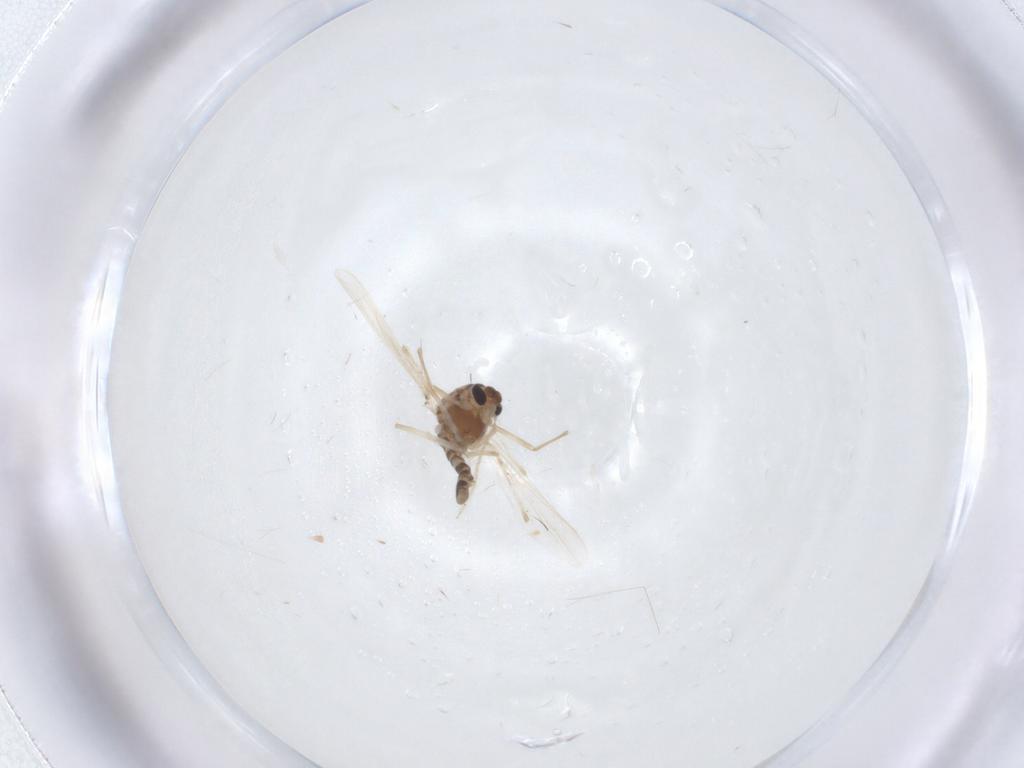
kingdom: Animalia
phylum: Arthropoda
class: Insecta
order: Diptera
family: Chironomidae
